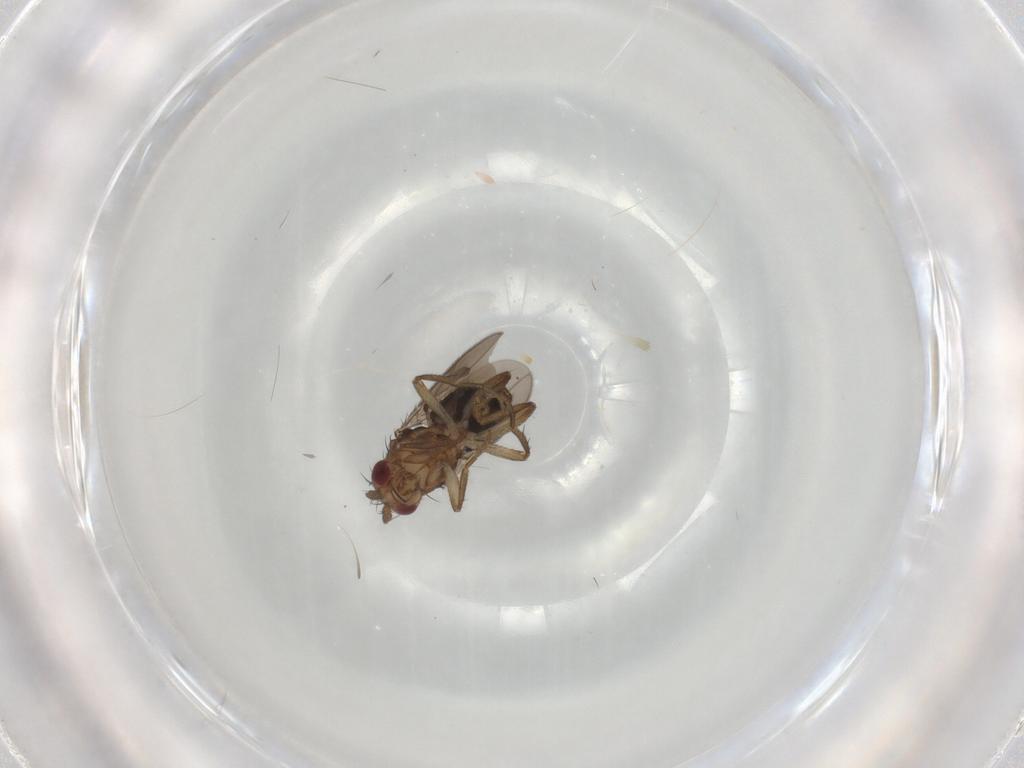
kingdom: Animalia
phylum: Arthropoda
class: Insecta
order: Diptera
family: Sphaeroceridae
